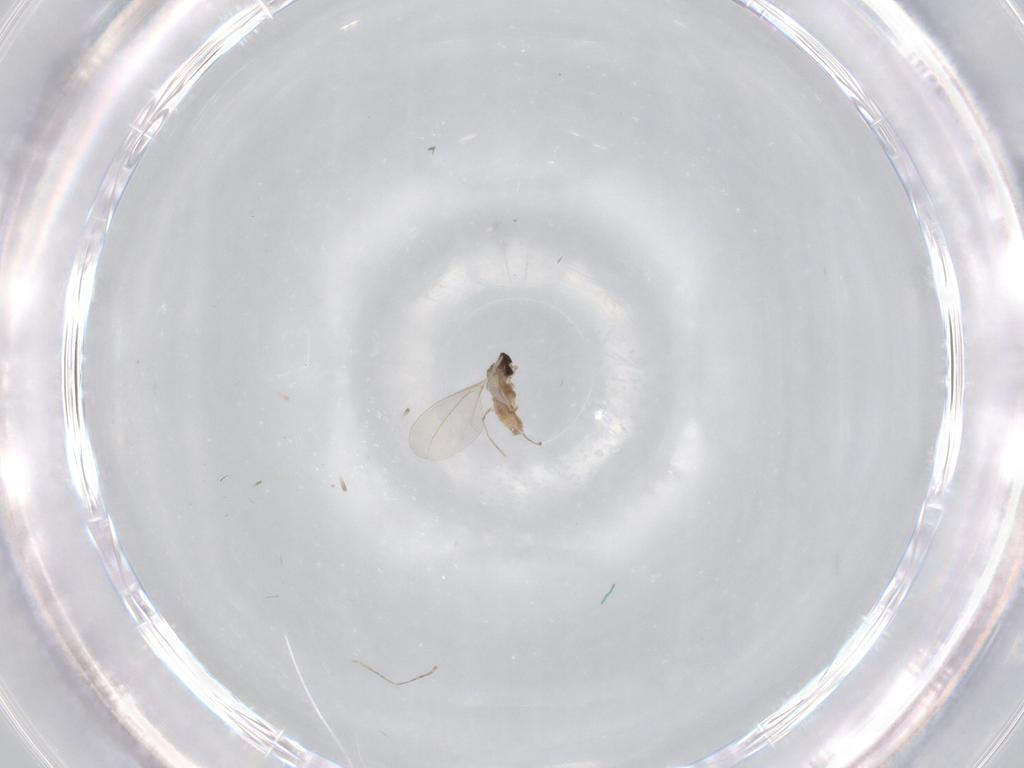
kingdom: Animalia
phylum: Arthropoda
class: Insecta
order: Diptera
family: Cecidomyiidae
